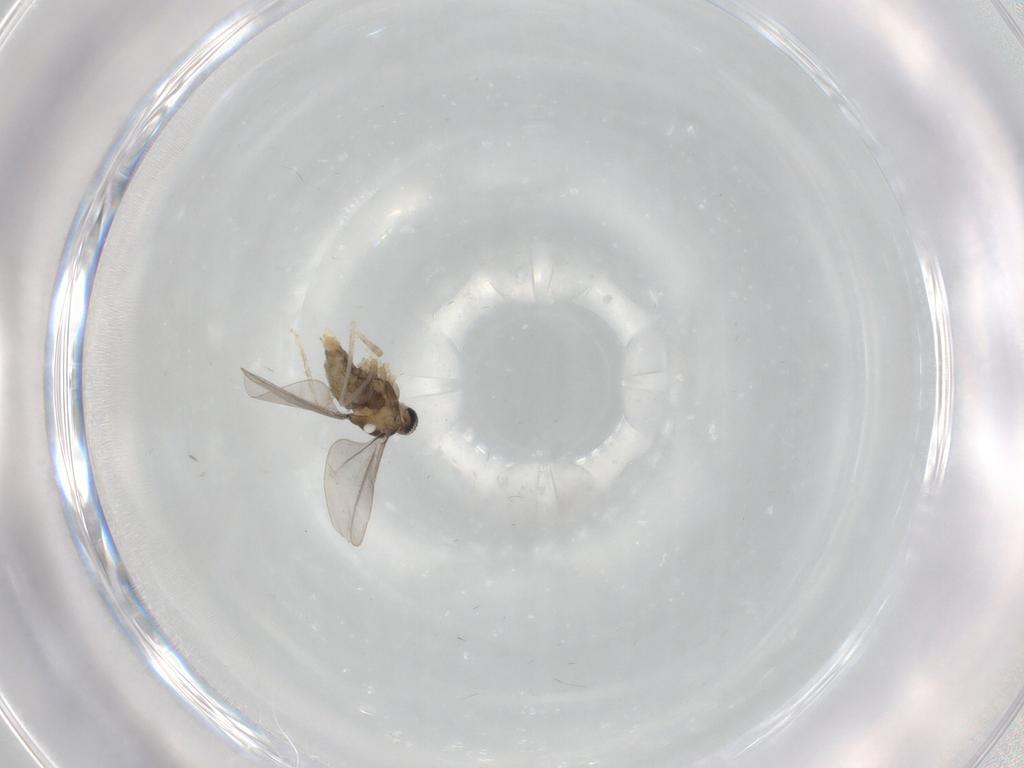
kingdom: Animalia
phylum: Arthropoda
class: Insecta
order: Diptera
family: Cecidomyiidae
